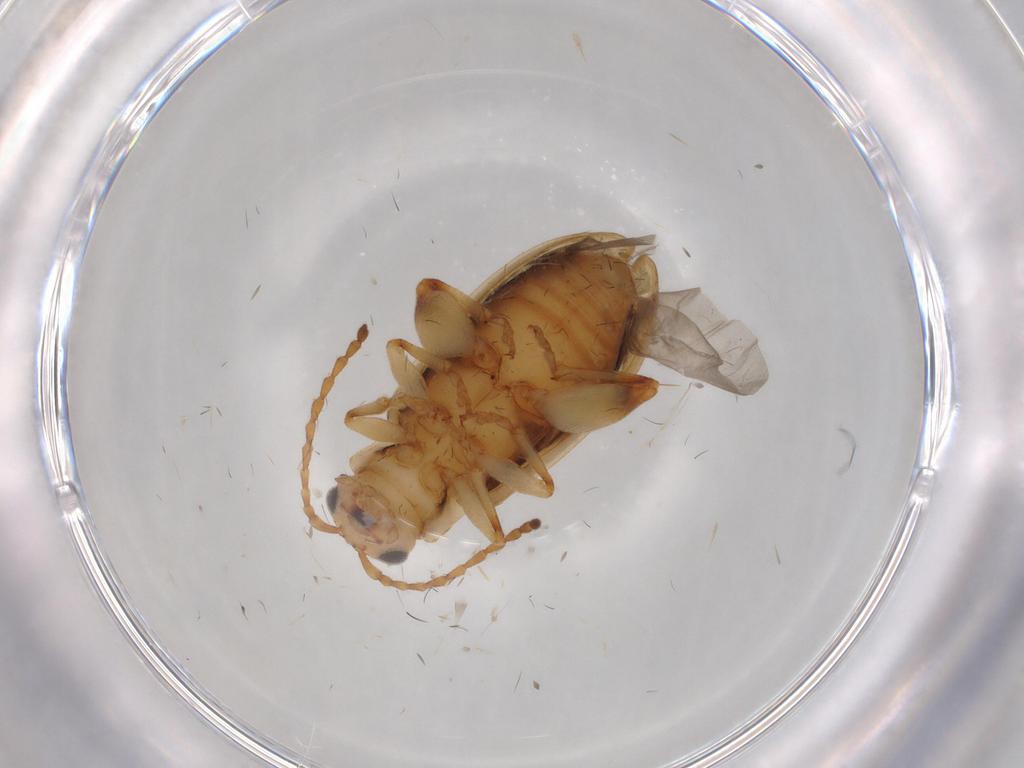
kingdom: Animalia
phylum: Arthropoda
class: Insecta
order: Coleoptera
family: Chrysomelidae
